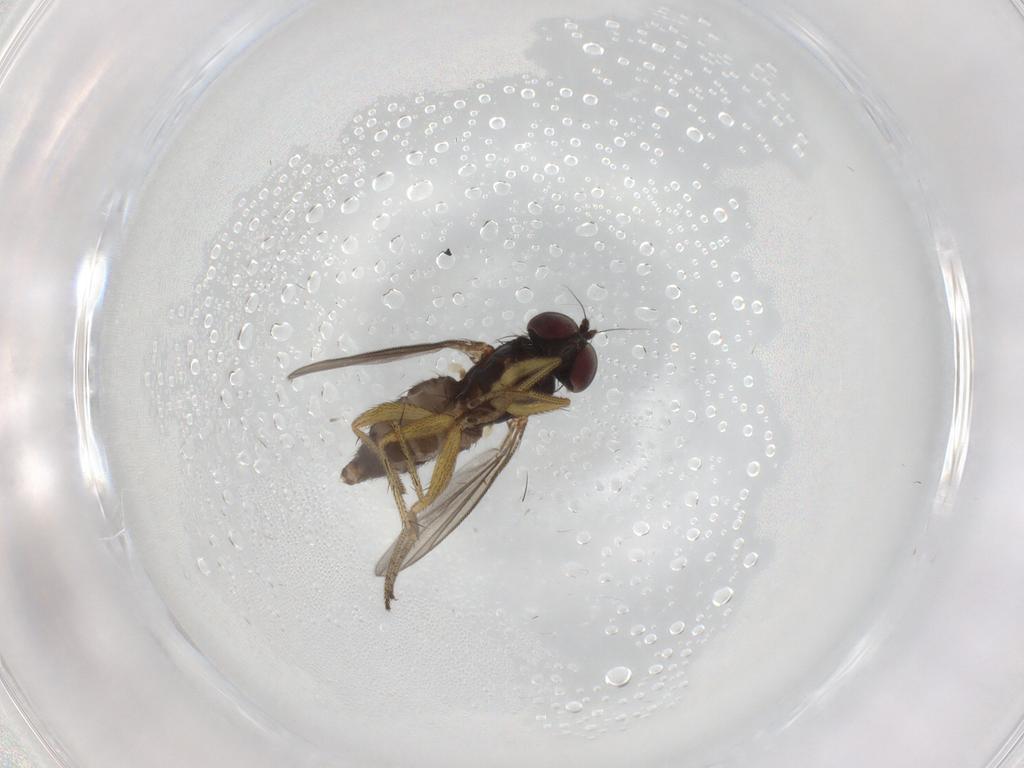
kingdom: Animalia
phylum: Arthropoda
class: Insecta
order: Diptera
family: Dolichopodidae
